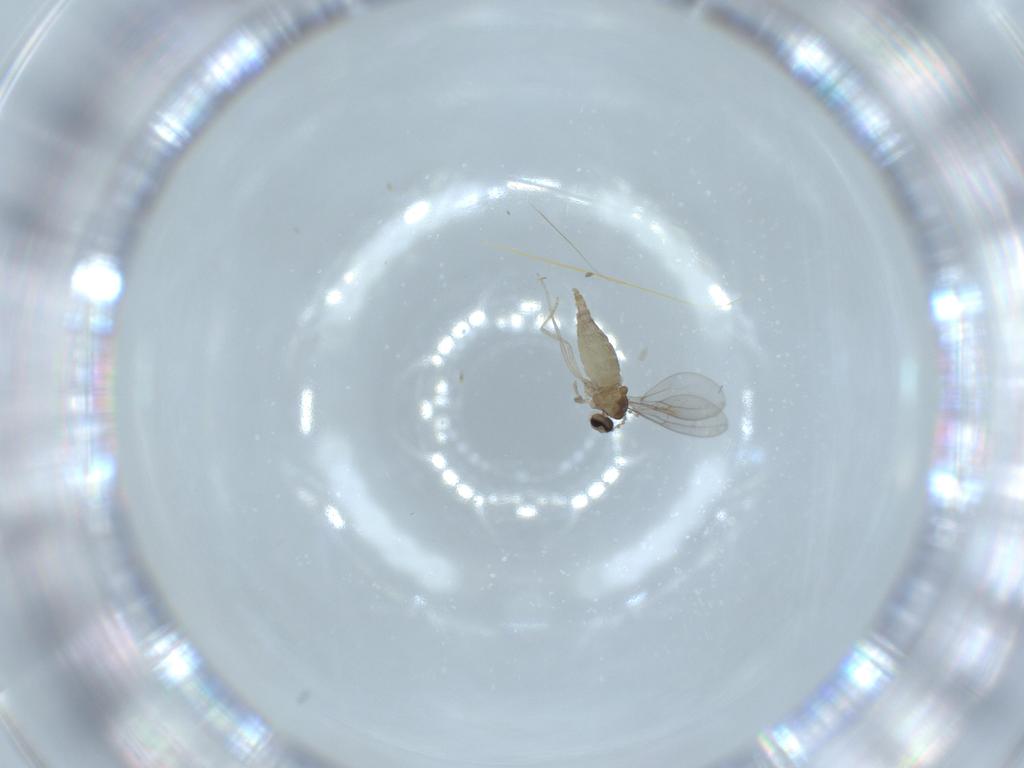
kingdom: Animalia
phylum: Arthropoda
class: Insecta
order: Diptera
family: Cecidomyiidae
